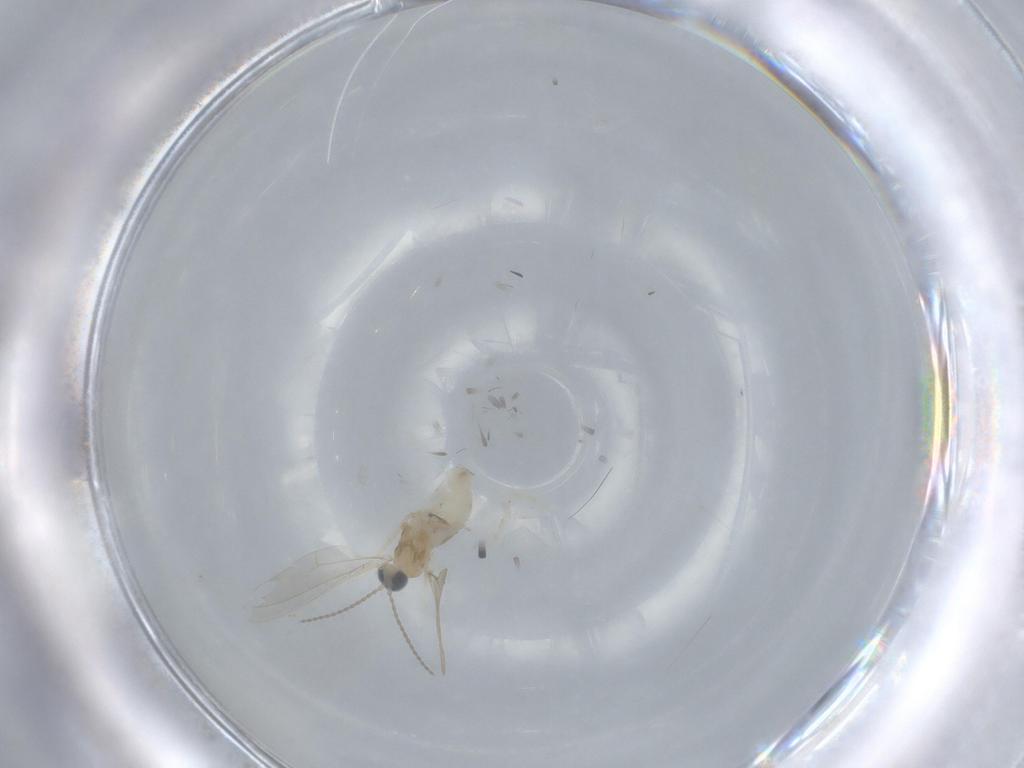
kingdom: Animalia
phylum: Arthropoda
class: Insecta
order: Diptera
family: Cecidomyiidae
